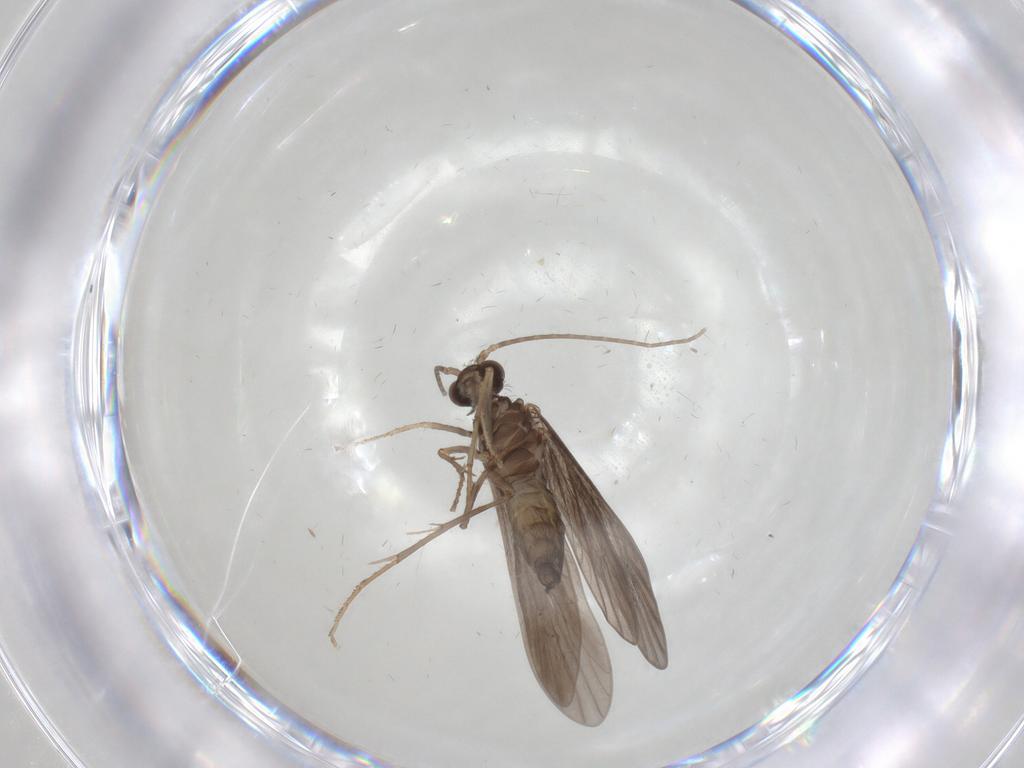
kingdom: Animalia
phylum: Arthropoda
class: Insecta
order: Trichoptera
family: Xiphocentronidae
